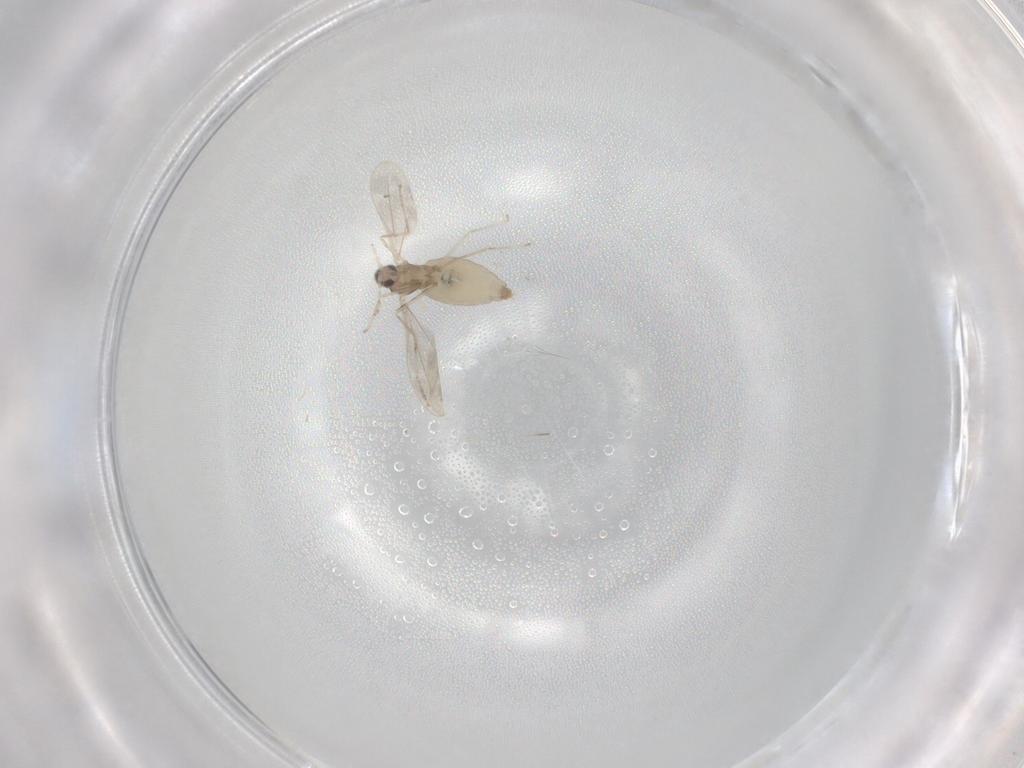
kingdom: Animalia
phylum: Arthropoda
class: Insecta
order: Diptera
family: Cecidomyiidae
